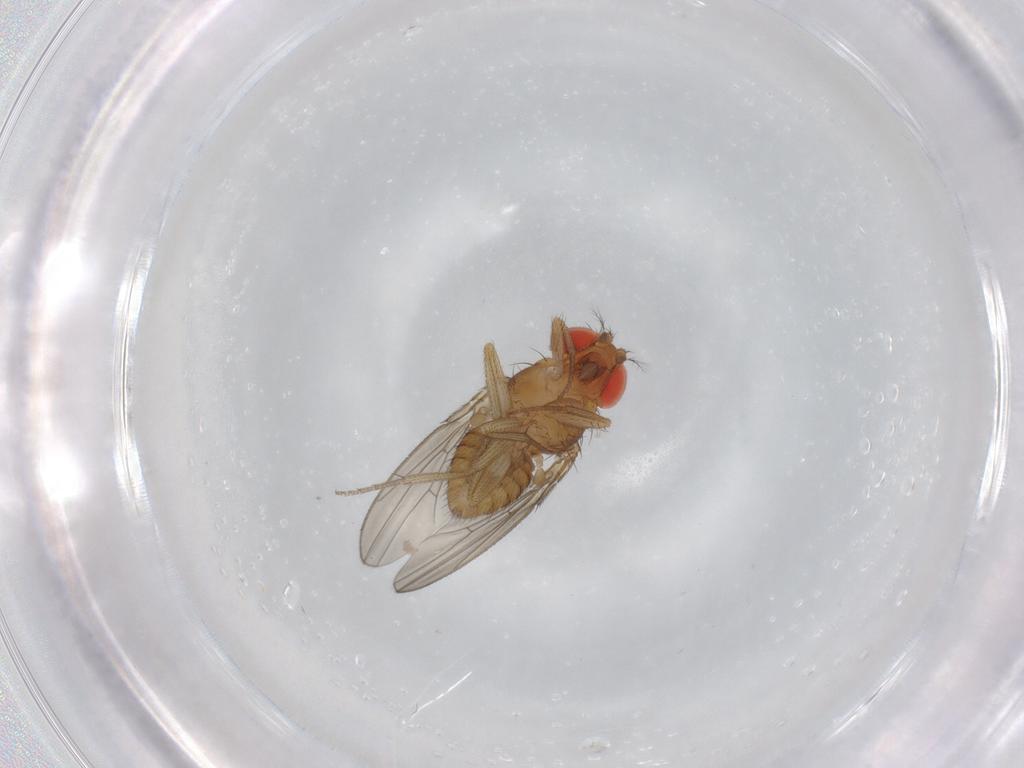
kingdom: Animalia
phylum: Arthropoda
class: Insecta
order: Diptera
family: Drosophilidae
